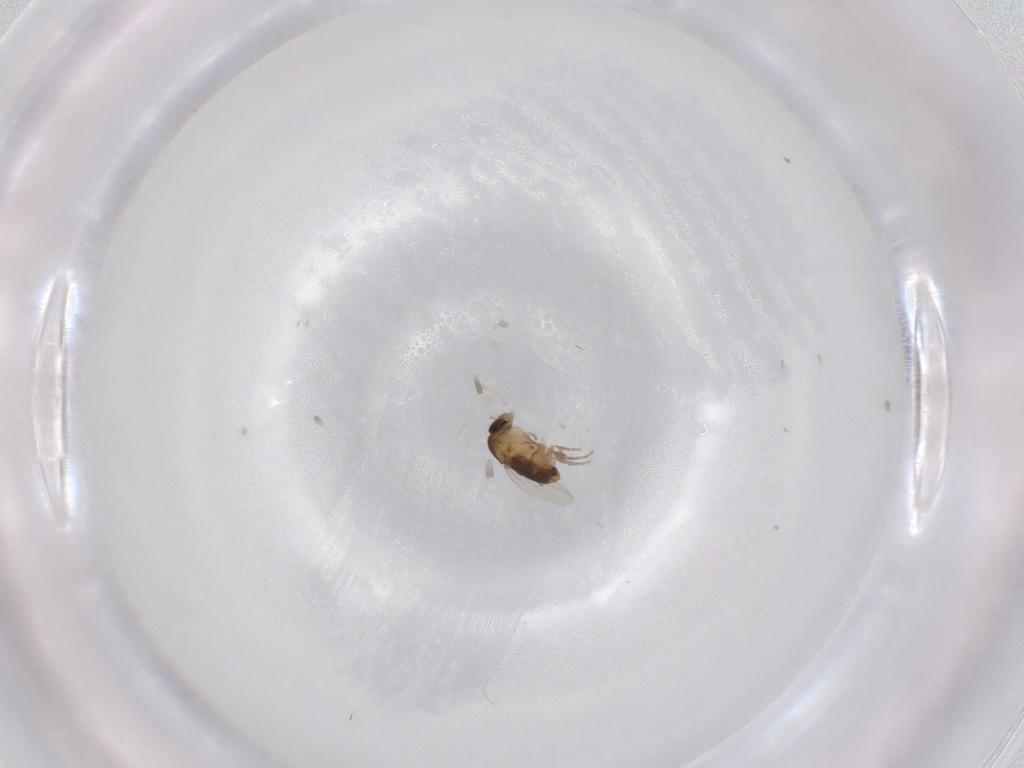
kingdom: Animalia
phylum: Arthropoda
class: Insecta
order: Diptera
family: Phoridae
